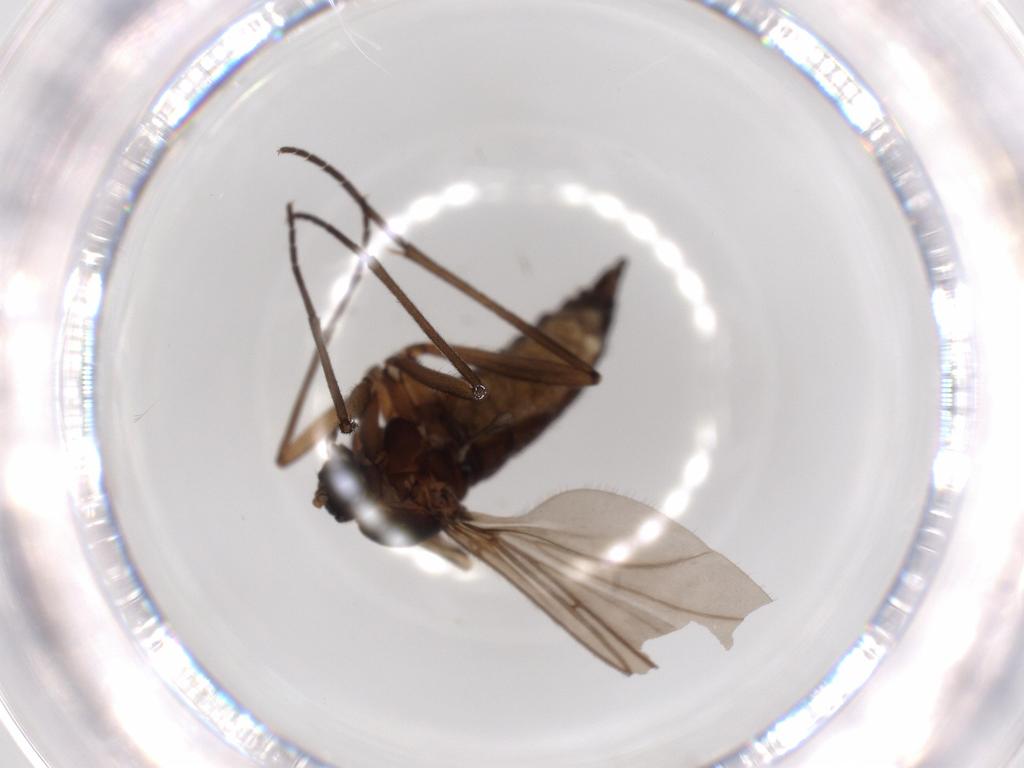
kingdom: Animalia
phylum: Arthropoda
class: Insecta
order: Diptera
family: Sciaridae
